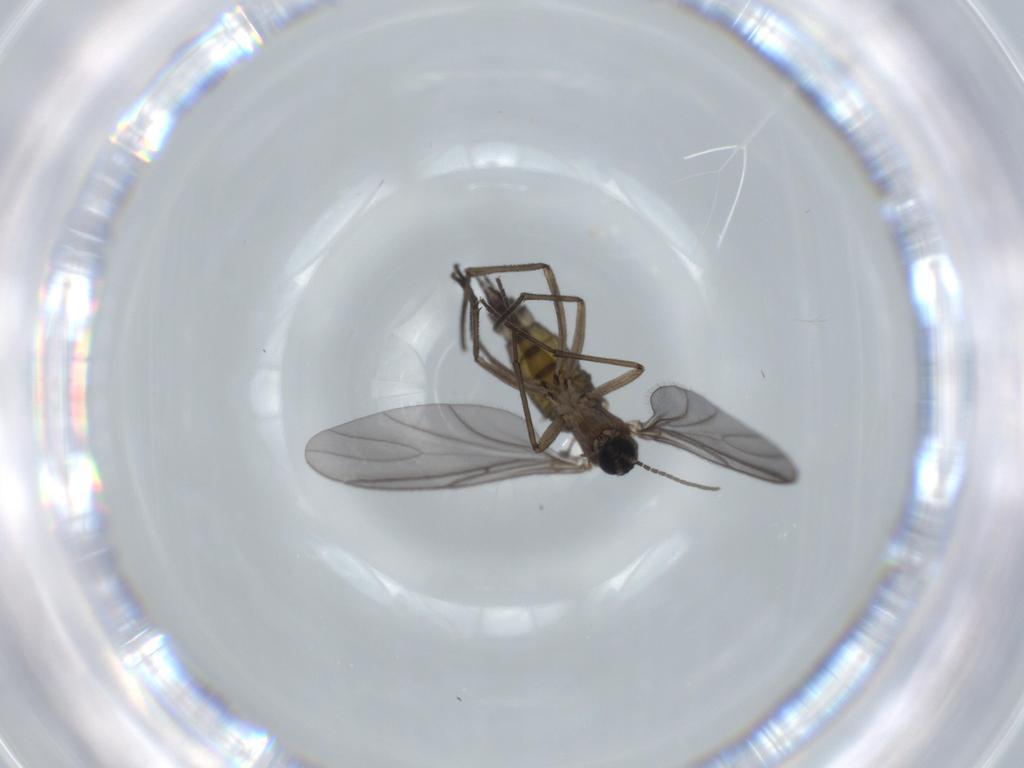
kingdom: Animalia
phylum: Arthropoda
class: Insecta
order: Diptera
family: Sciaridae
